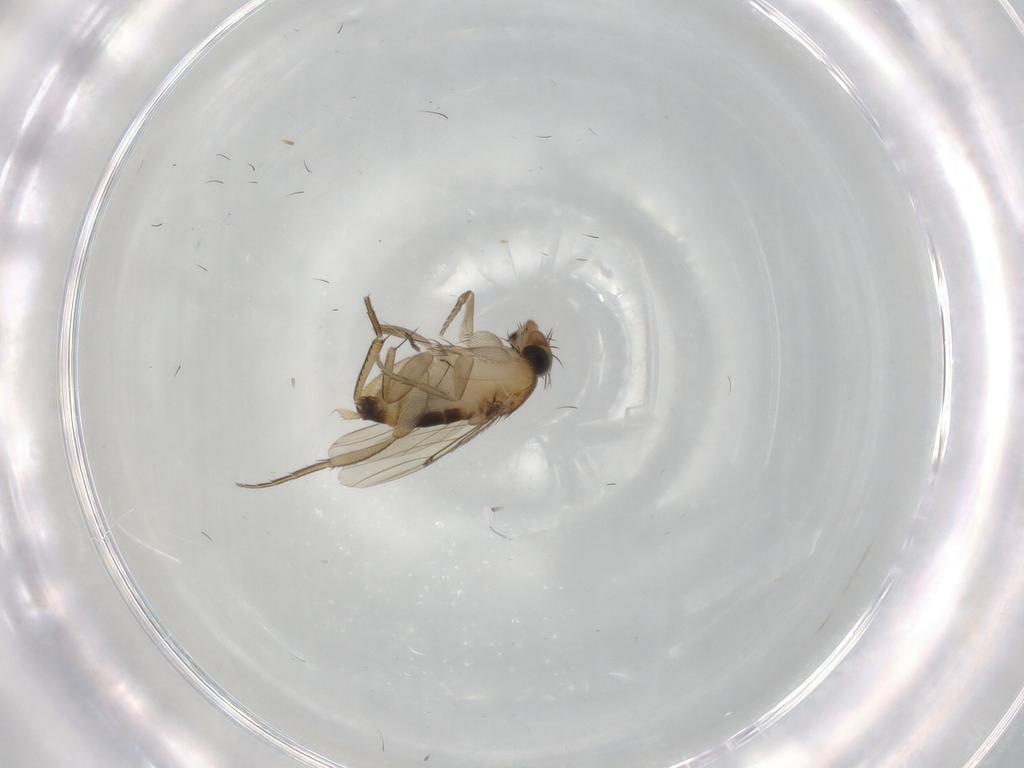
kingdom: Animalia
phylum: Arthropoda
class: Insecta
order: Diptera
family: Phoridae
